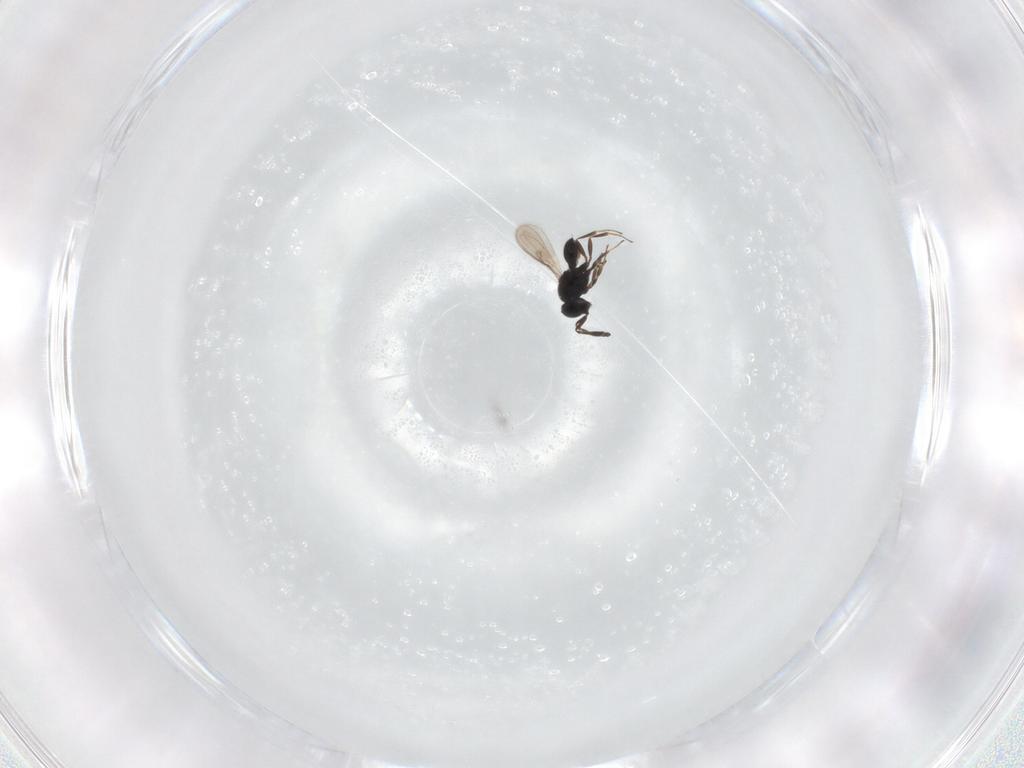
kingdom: Animalia
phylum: Arthropoda
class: Insecta
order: Hymenoptera
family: Scelionidae
